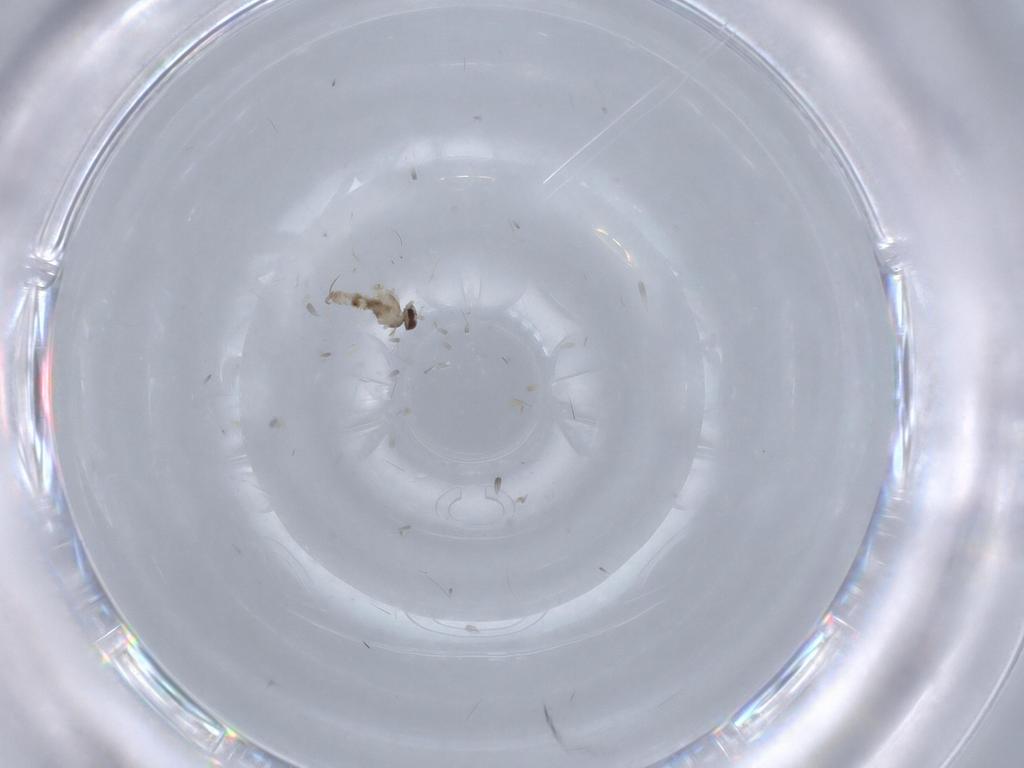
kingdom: Animalia
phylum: Arthropoda
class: Insecta
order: Diptera
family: Cecidomyiidae
